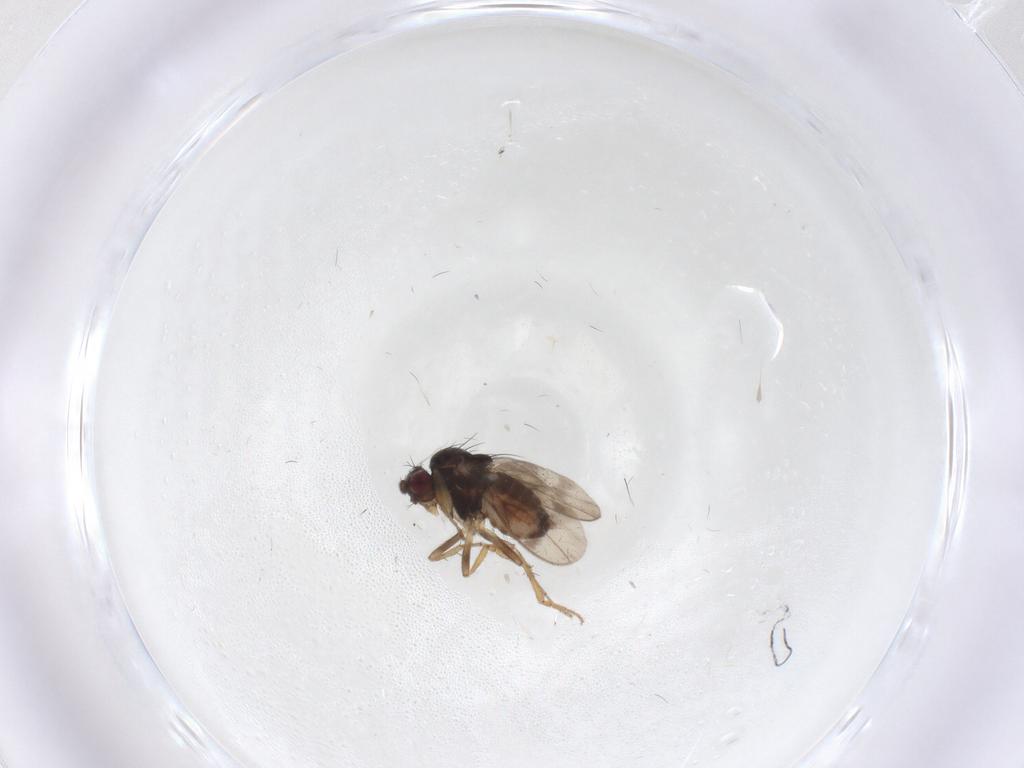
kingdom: Animalia
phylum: Arthropoda
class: Insecta
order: Diptera
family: Sphaeroceridae
